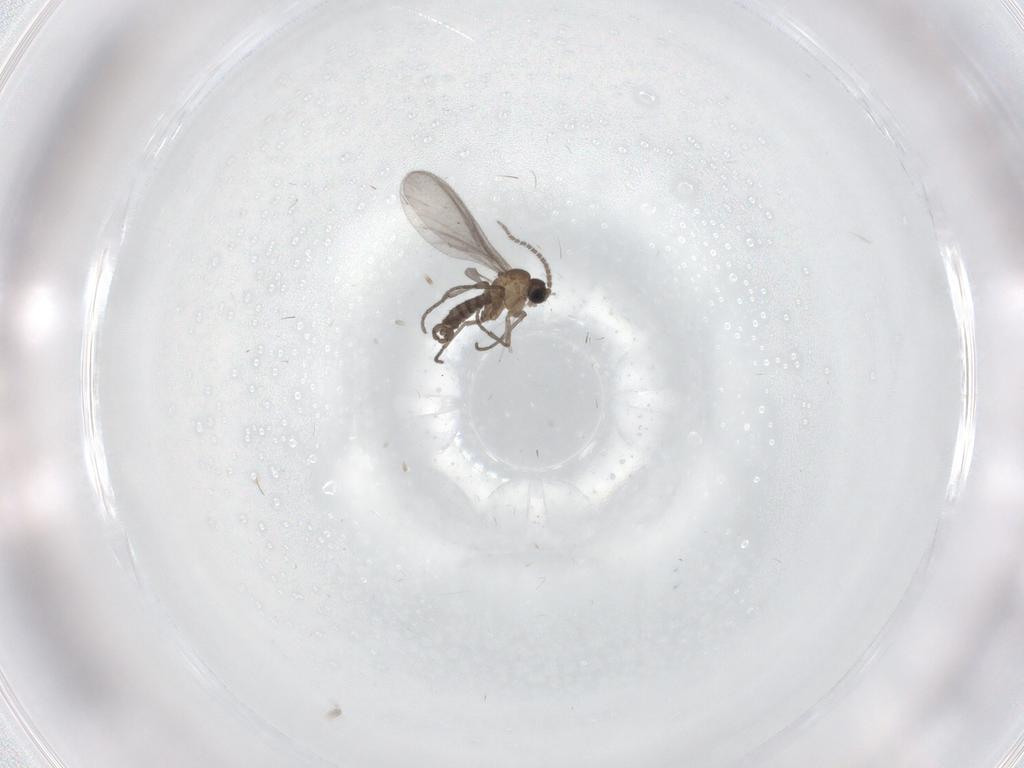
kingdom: Animalia
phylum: Arthropoda
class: Insecta
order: Diptera
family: Sciaridae
